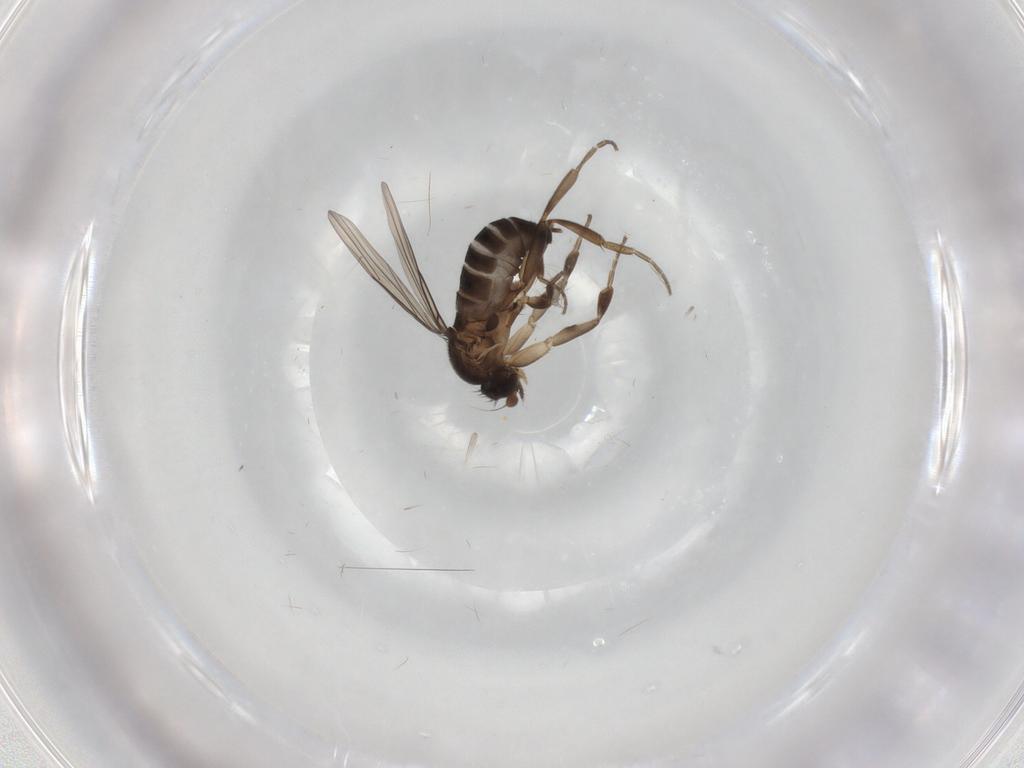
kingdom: Animalia
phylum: Arthropoda
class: Insecta
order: Diptera
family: Phoridae
